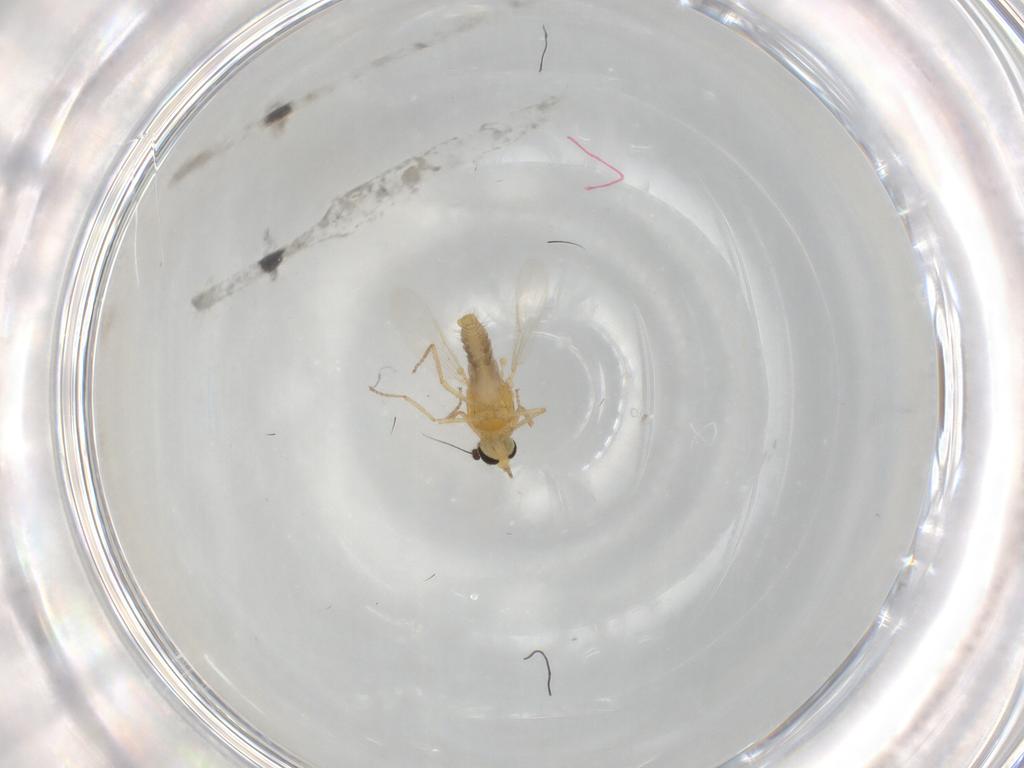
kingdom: Animalia
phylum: Arthropoda
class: Insecta
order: Diptera
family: Ceratopogonidae
